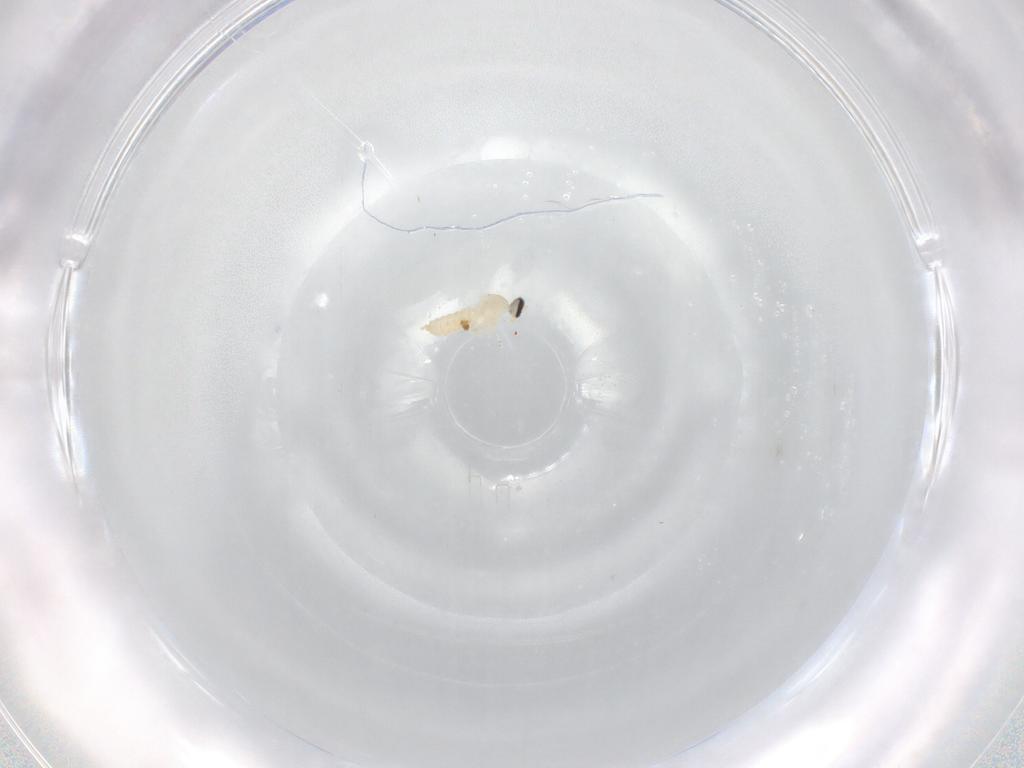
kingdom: Animalia
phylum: Arthropoda
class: Insecta
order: Diptera
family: Cecidomyiidae
